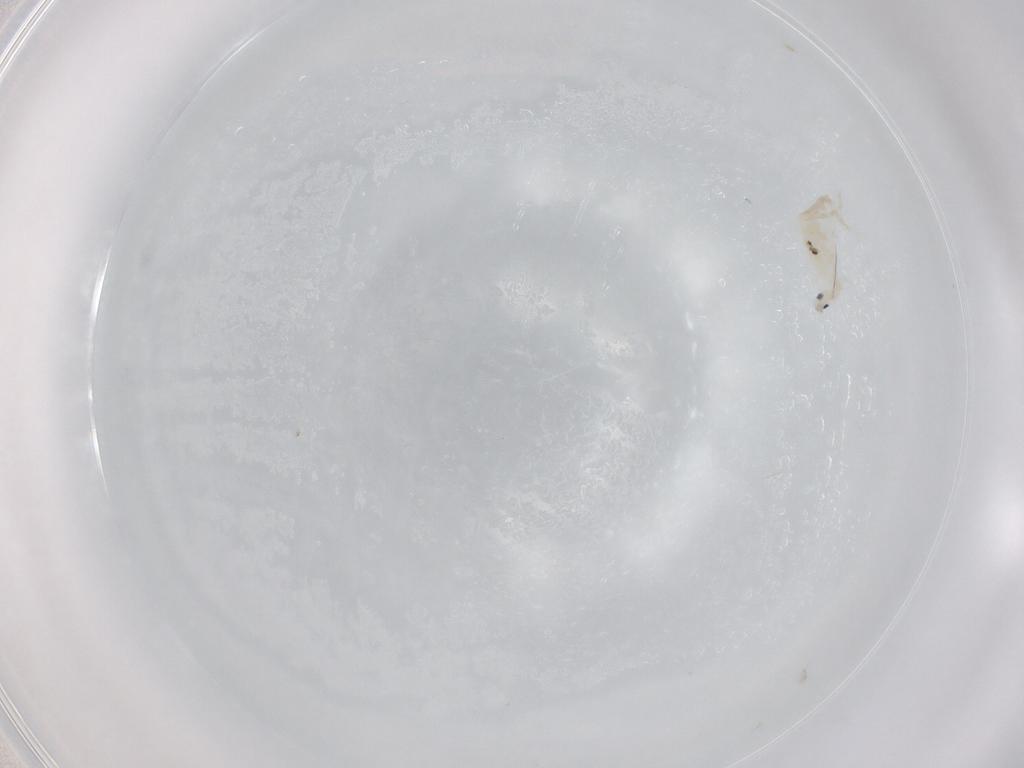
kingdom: Animalia
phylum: Arthropoda
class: Collembola
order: Entomobryomorpha
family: Entomobryidae
